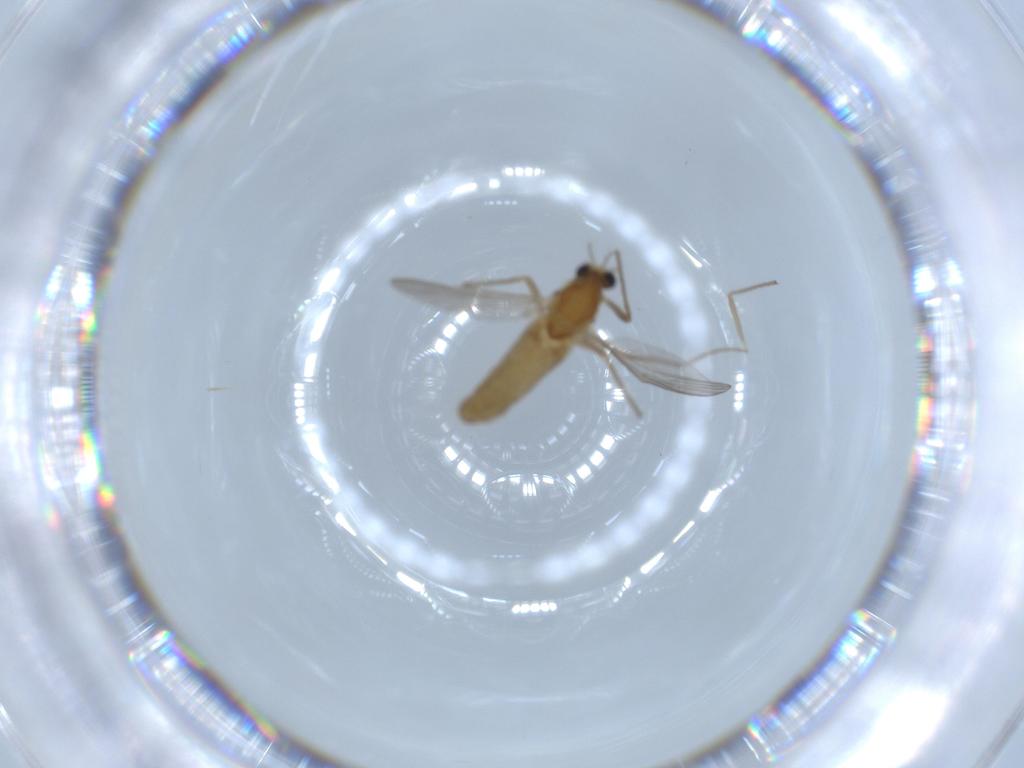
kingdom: Animalia
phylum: Arthropoda
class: Insecta
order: Diptera
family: Chironomidae
